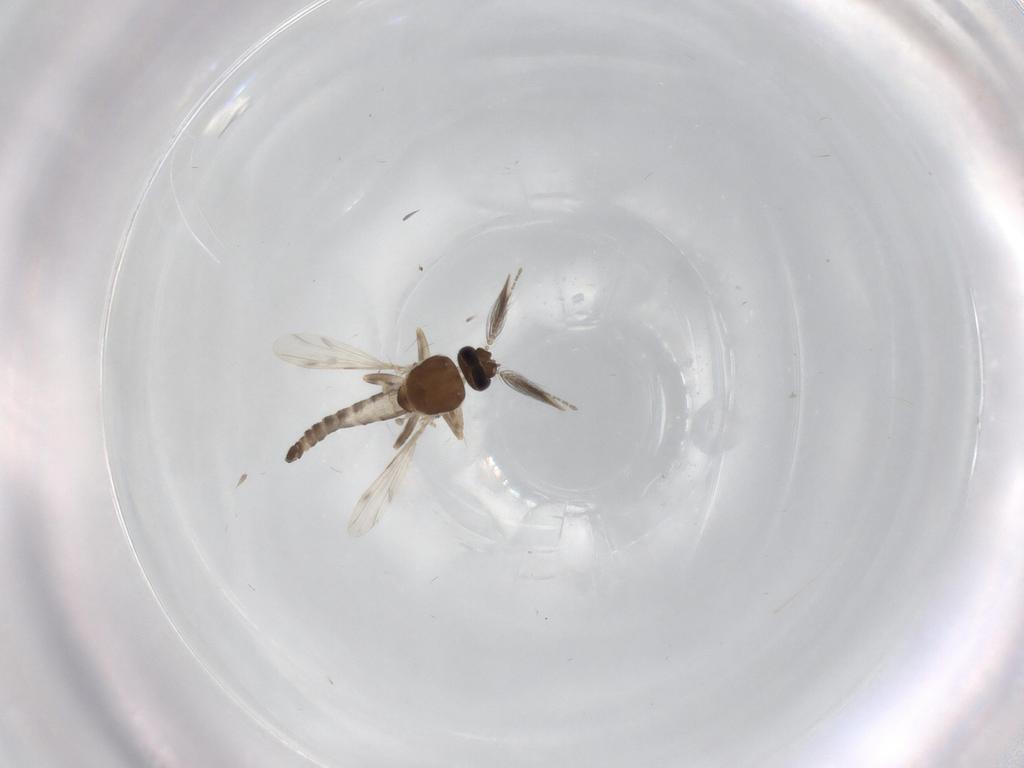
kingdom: Animalia
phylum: Arthropoda
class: Insecta
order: Diptera
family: Ceratopogonidae
